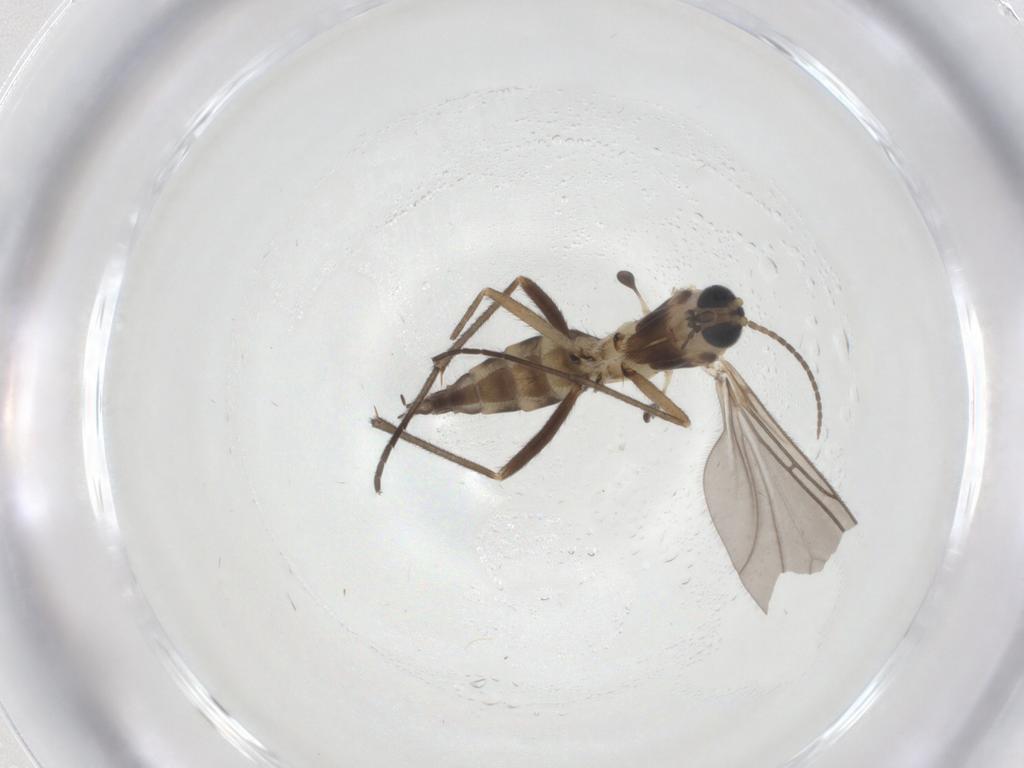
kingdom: Animalia
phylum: Arthropoda
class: Insecta
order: Diptera
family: Sciaridae
